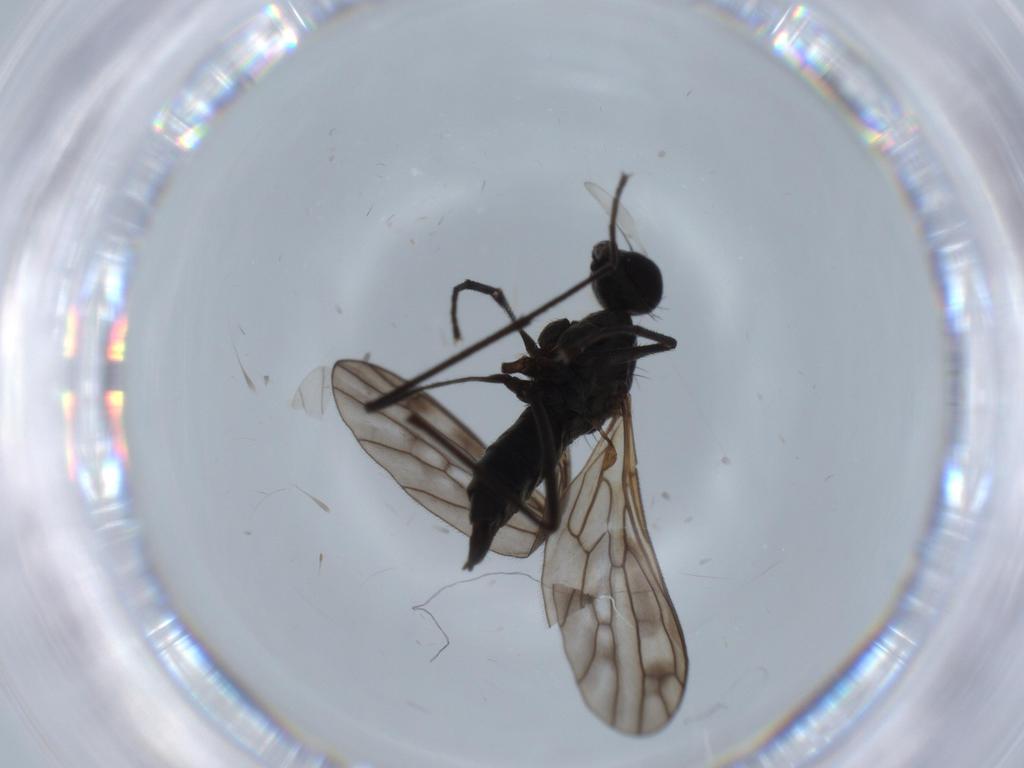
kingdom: Animalia
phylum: Arthropoda
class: Insecta
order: Diptera
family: Empididae
